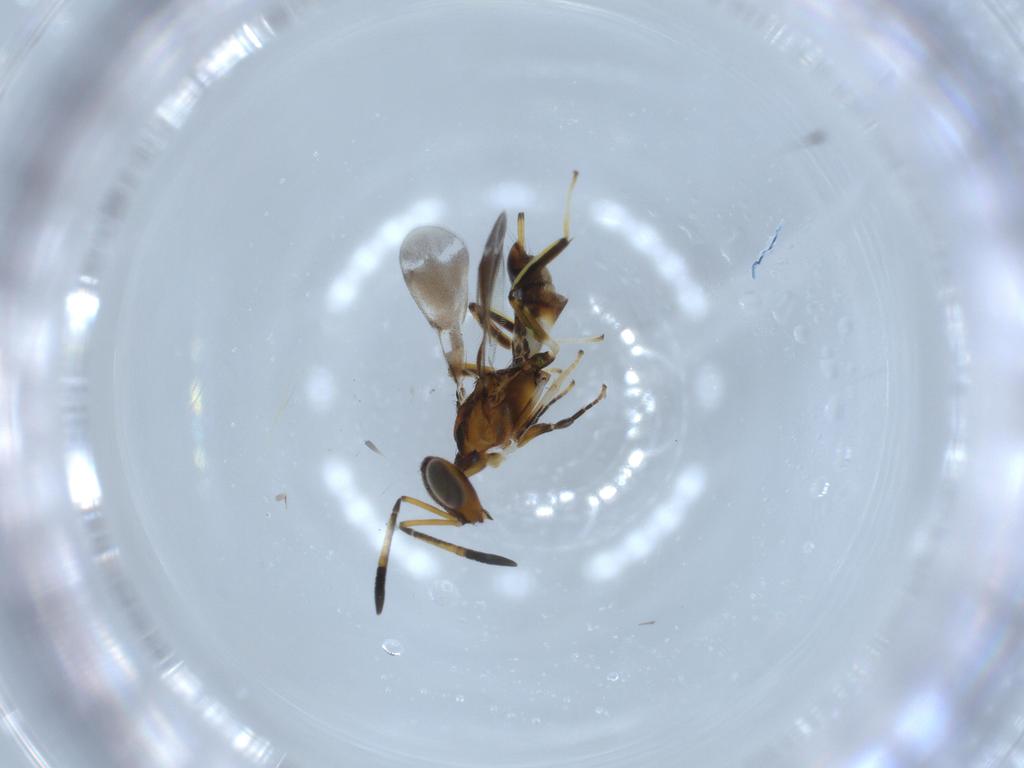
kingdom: Animalia
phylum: Arthropoda
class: Insecta
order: Hymenoptera
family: Eupelmidae
